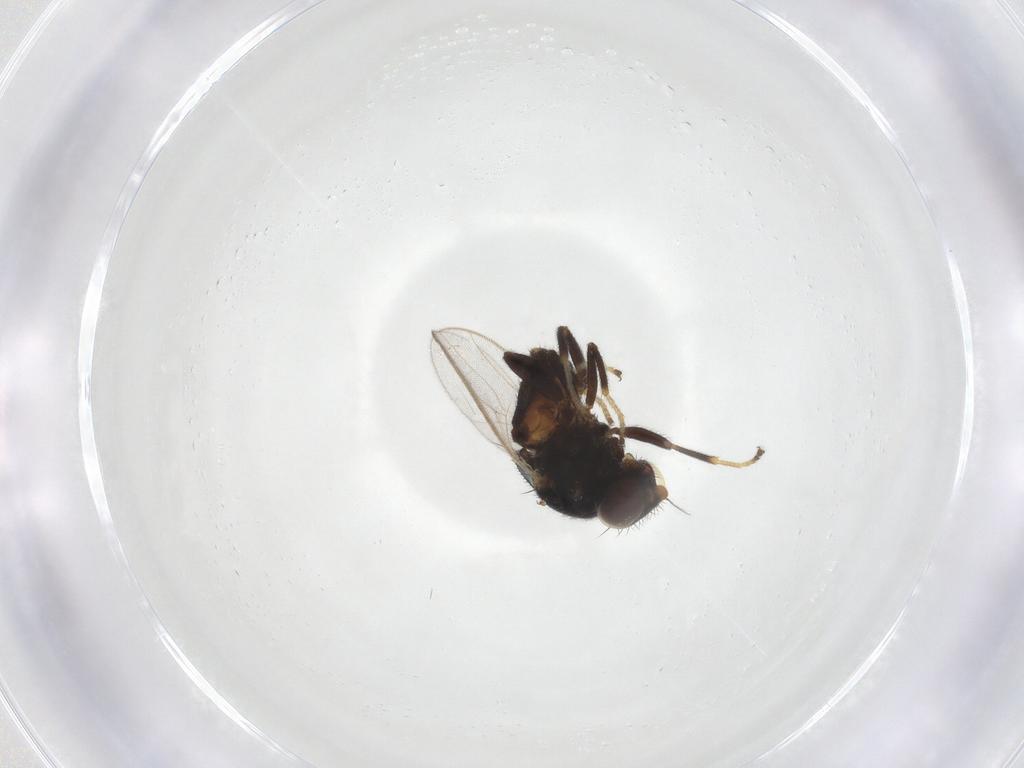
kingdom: Animalia
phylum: Arthropoda
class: Insecta
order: Diptera
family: Chloropidae
